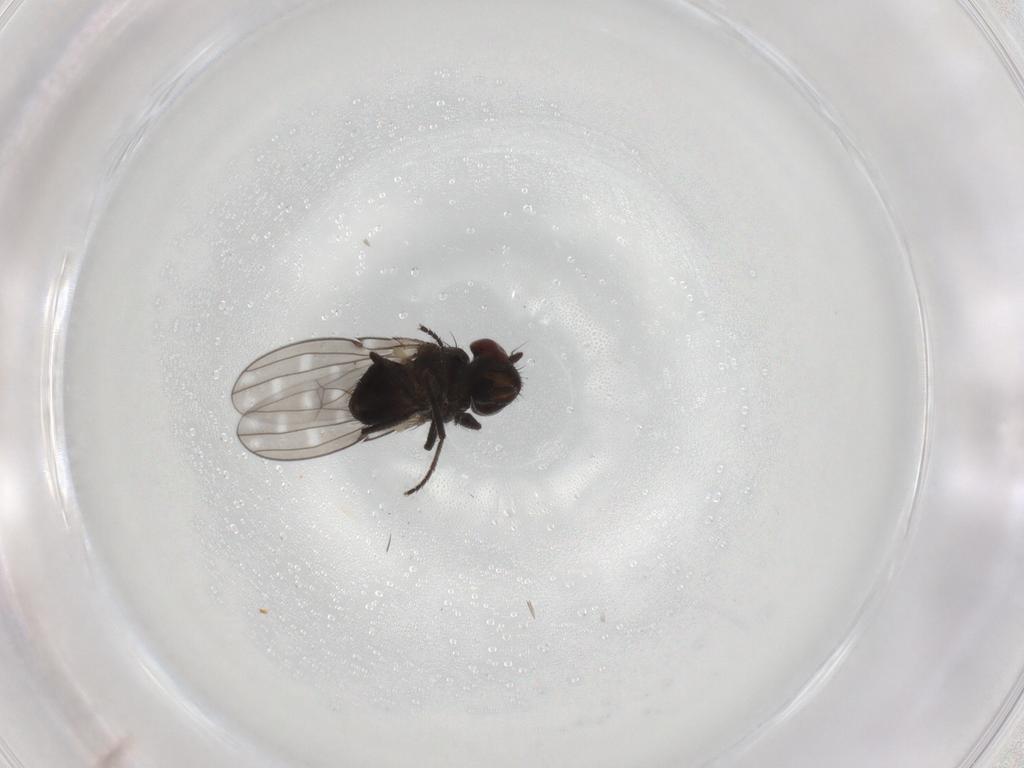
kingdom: Animalia
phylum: Arthropoda
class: Insecta
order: Diptera
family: Ephydridae
